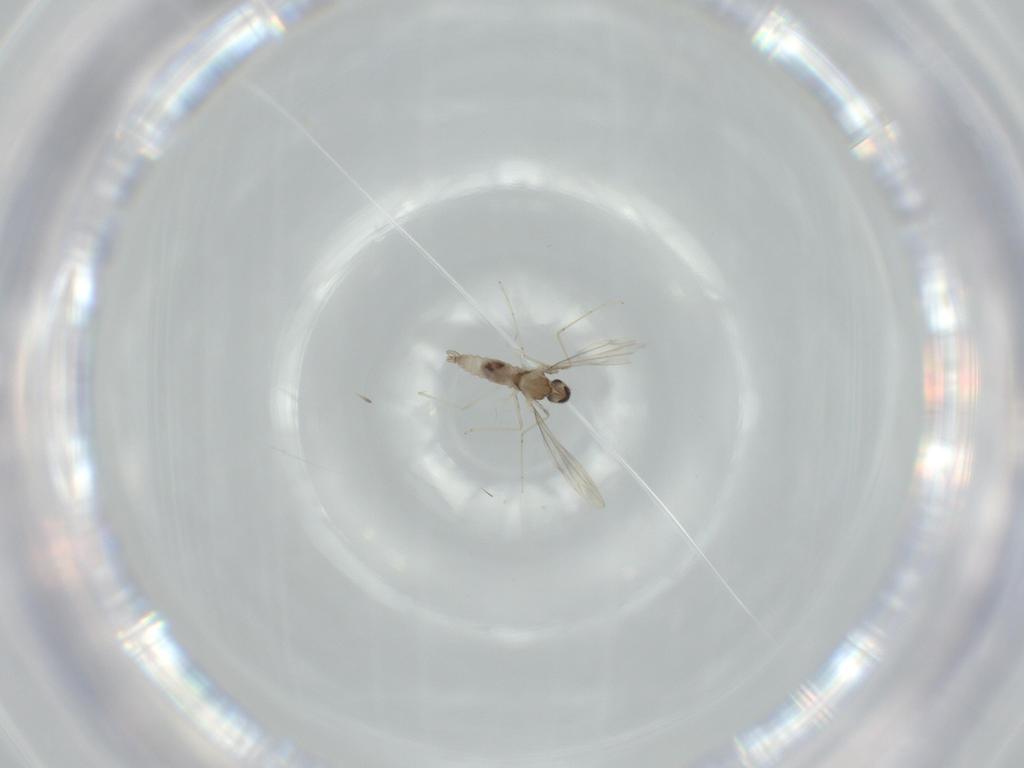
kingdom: Animalia
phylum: Arthropoda
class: Insecta
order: Diptera
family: Cecidomyiidae
